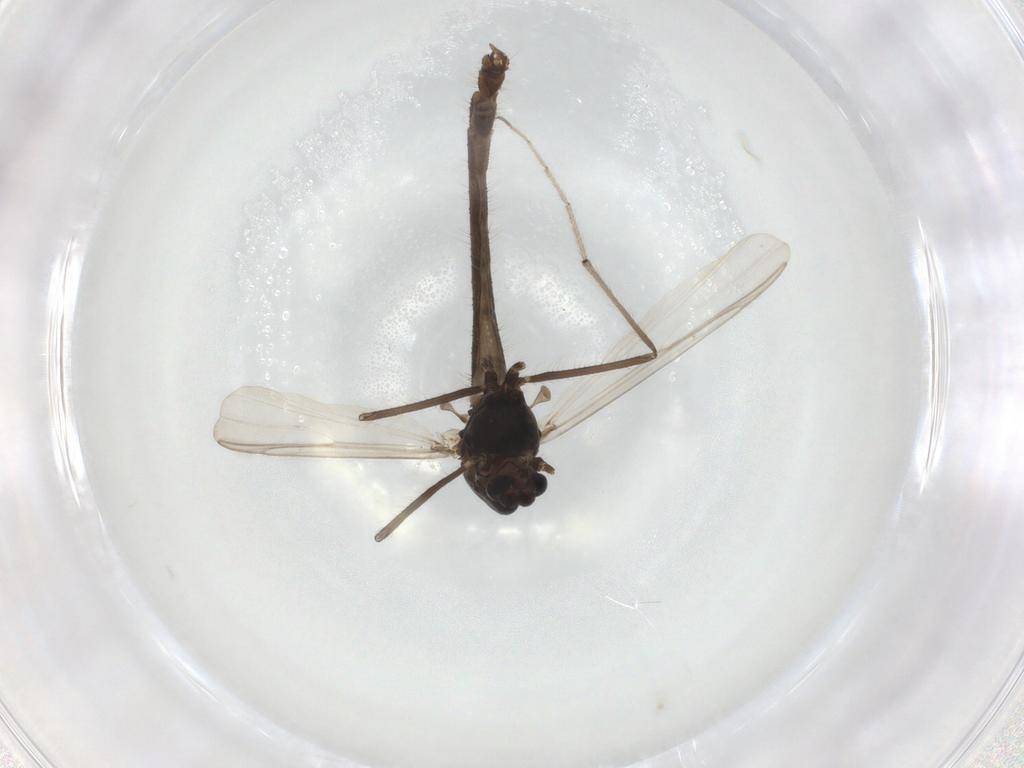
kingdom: Animalia
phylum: Arthropoda
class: Insecta
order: Diptera
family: Chironomidae
